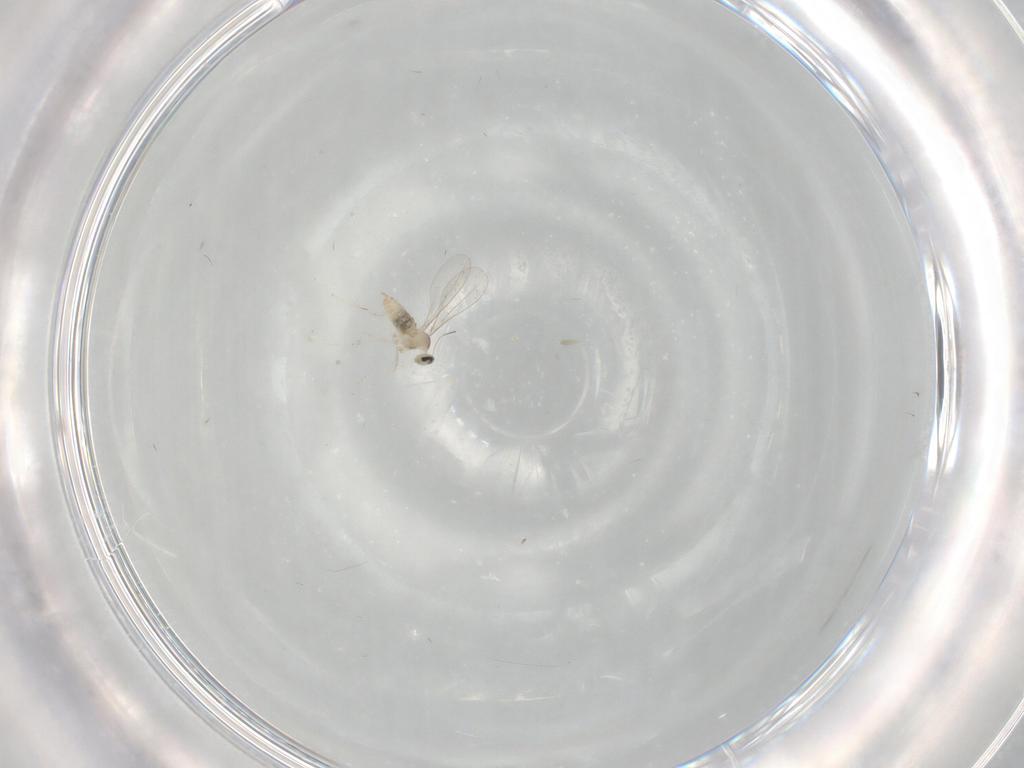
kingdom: Animalia
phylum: Arthropoda
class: Insecta
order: Diptera
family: Cecidomyiidae
